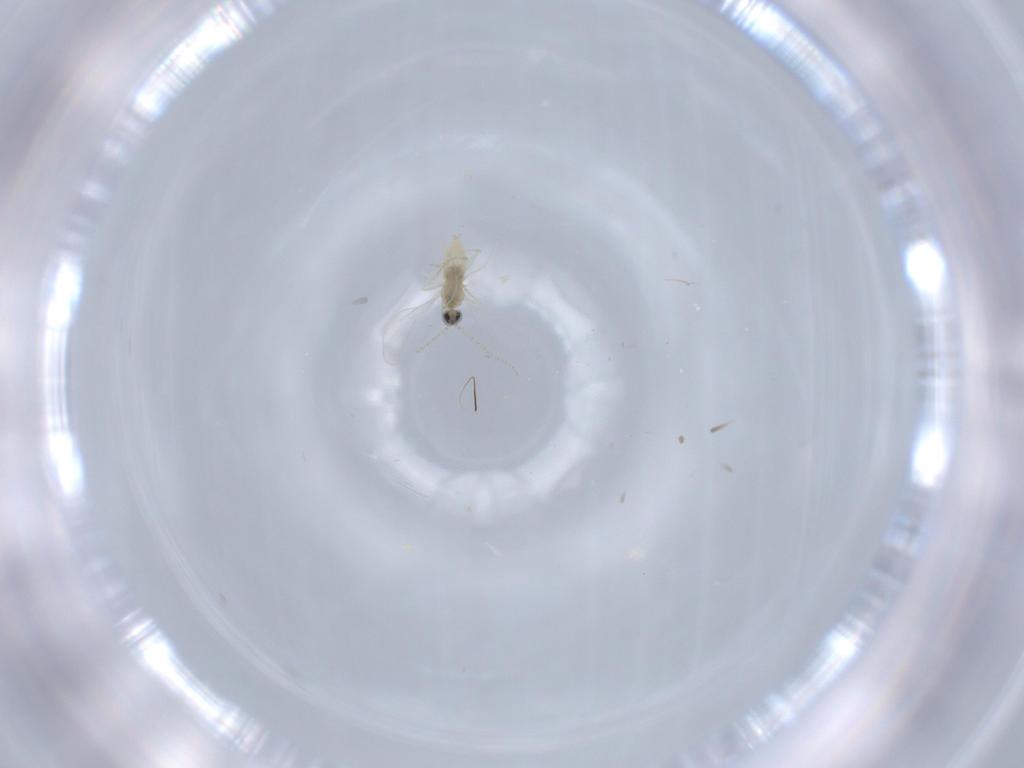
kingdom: Animalia
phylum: Arthropoda
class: Insecta
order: Diptera
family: Cecidomyiidae
